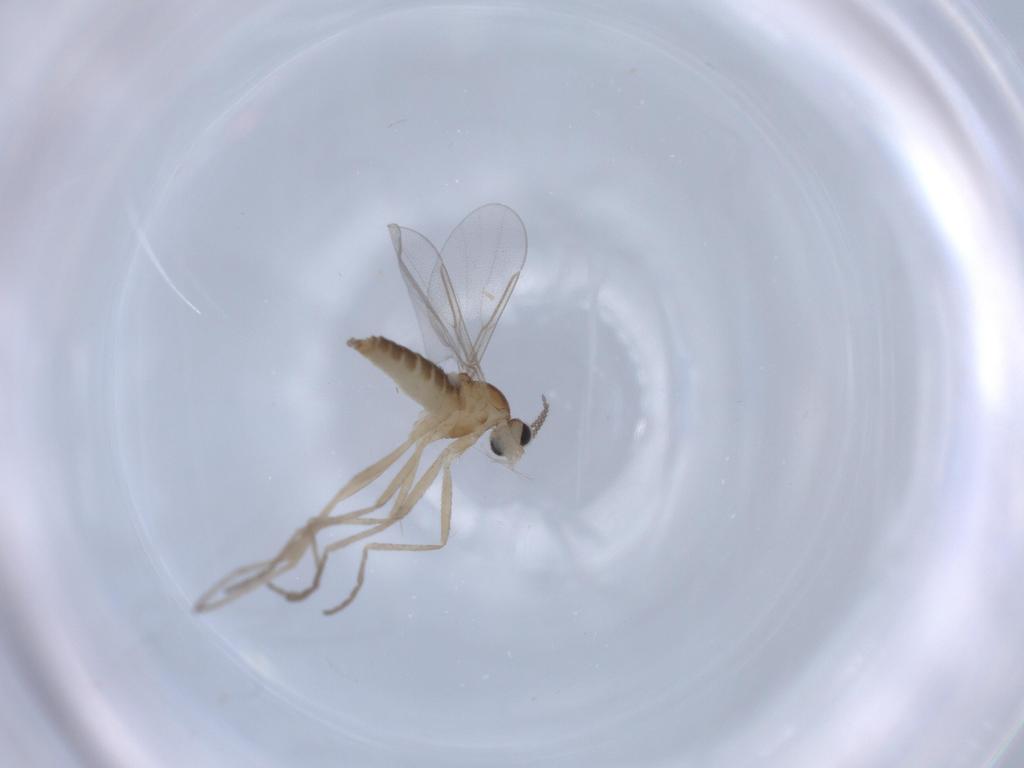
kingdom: Animalia
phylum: Arthropoda
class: Insecta
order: Diptera
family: Cecidomyiidae
